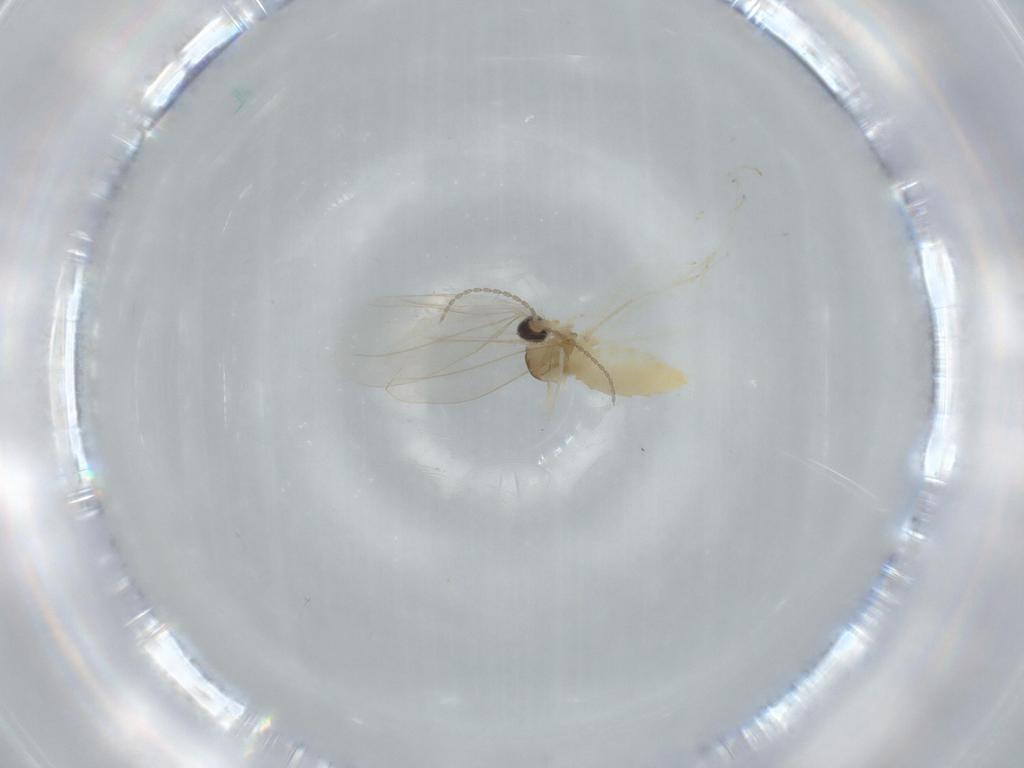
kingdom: Animalia
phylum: Arthropoda
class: Insecta
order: Diptera
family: Cecidomyiidae
